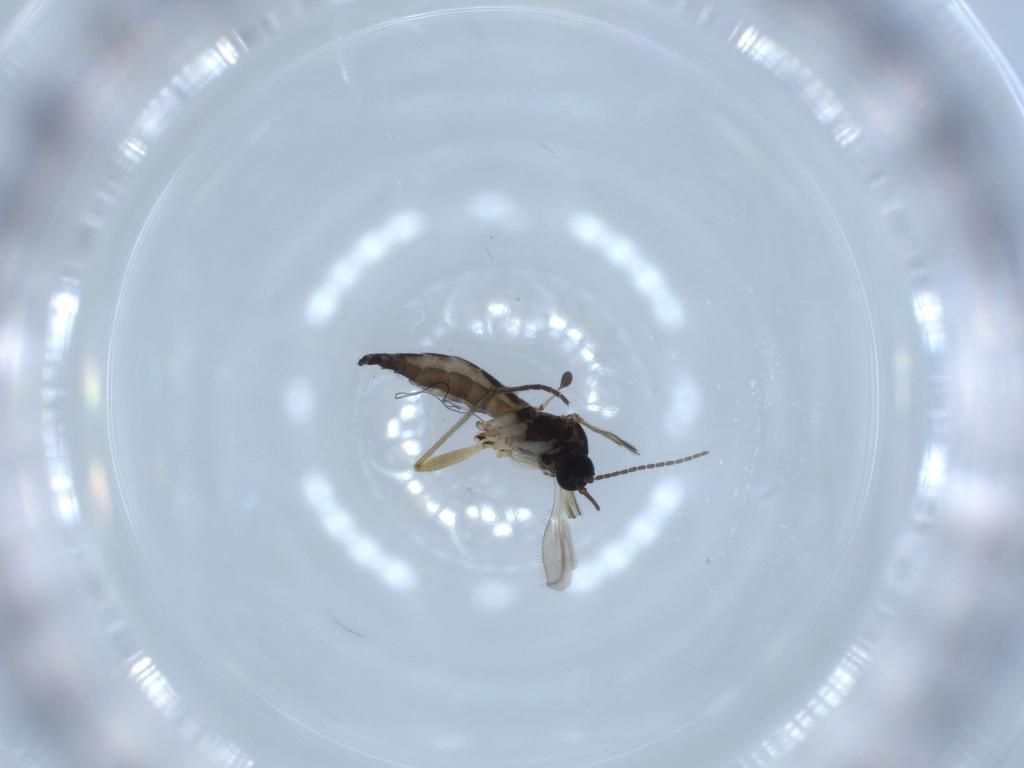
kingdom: Animalia
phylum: Arthropoda
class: Insecta
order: Diptera
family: Sciaridae
